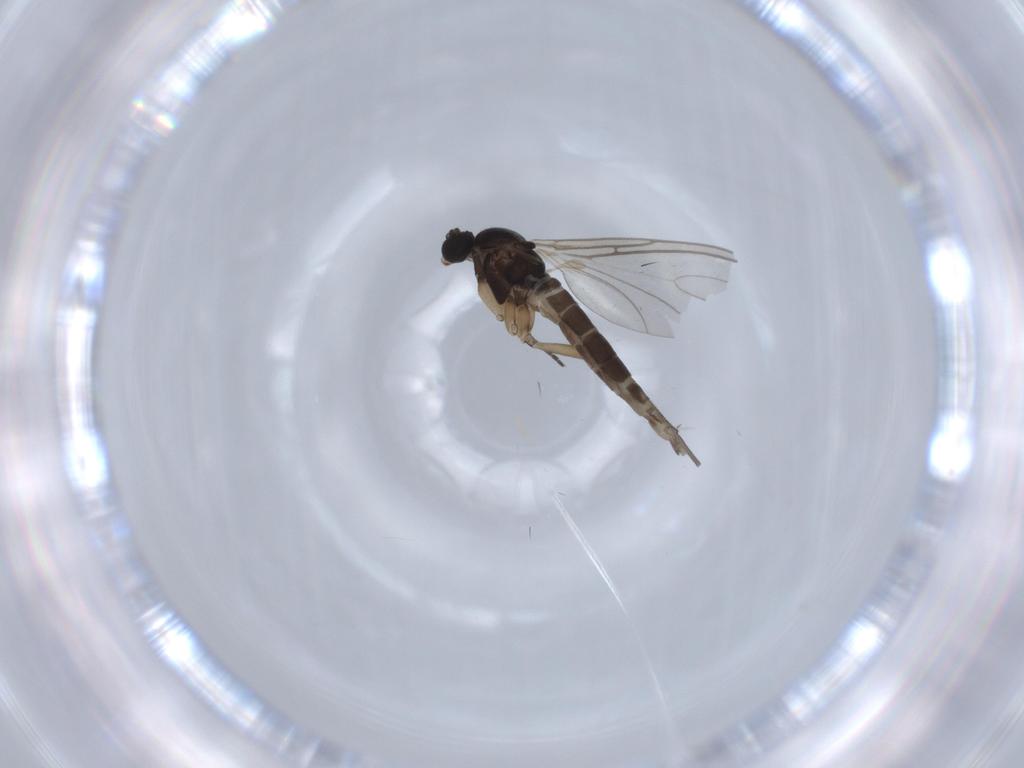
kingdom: Animalia
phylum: Arthropoda
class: Insecta
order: Diptera
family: Sciaridae
